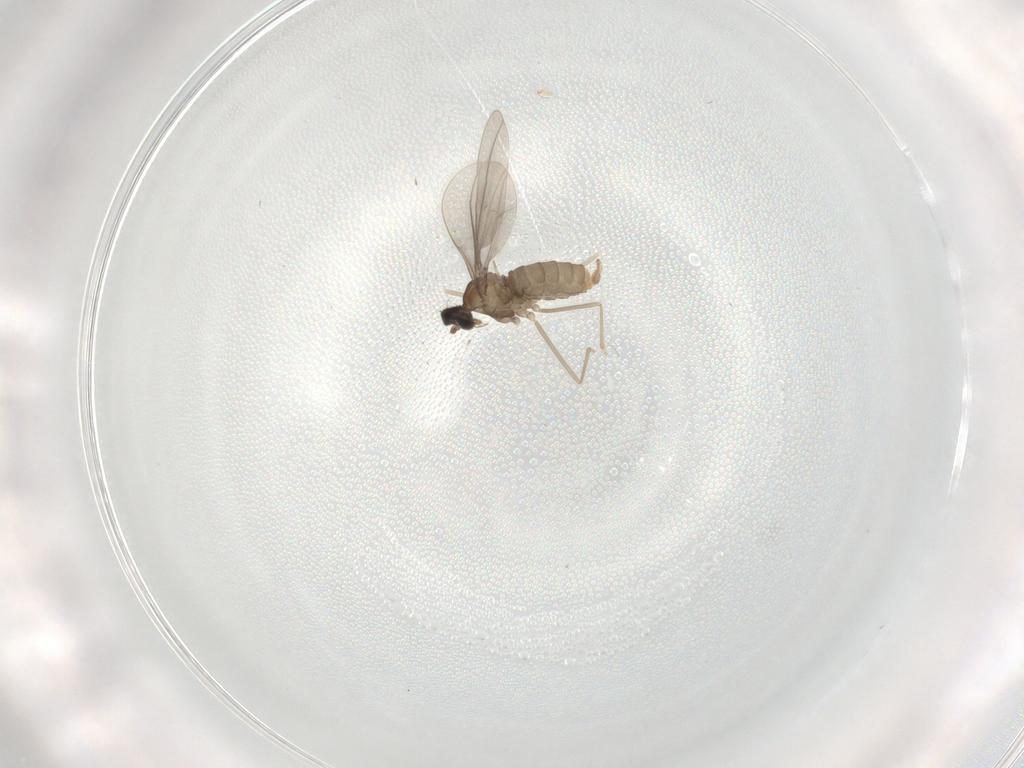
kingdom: Animalia
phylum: Arthropoda
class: Insecta
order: Diptera
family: Cecidomyiidae
